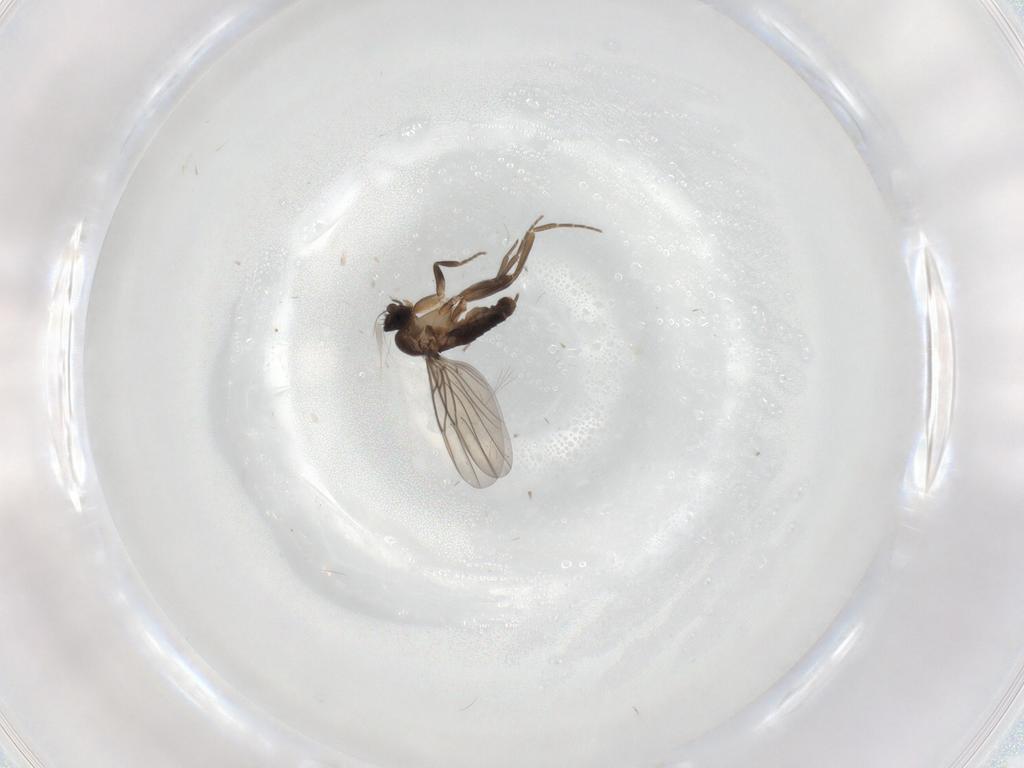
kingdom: Animalia
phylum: Arthropoda
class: Insecta
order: Diptera
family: Phoridae
